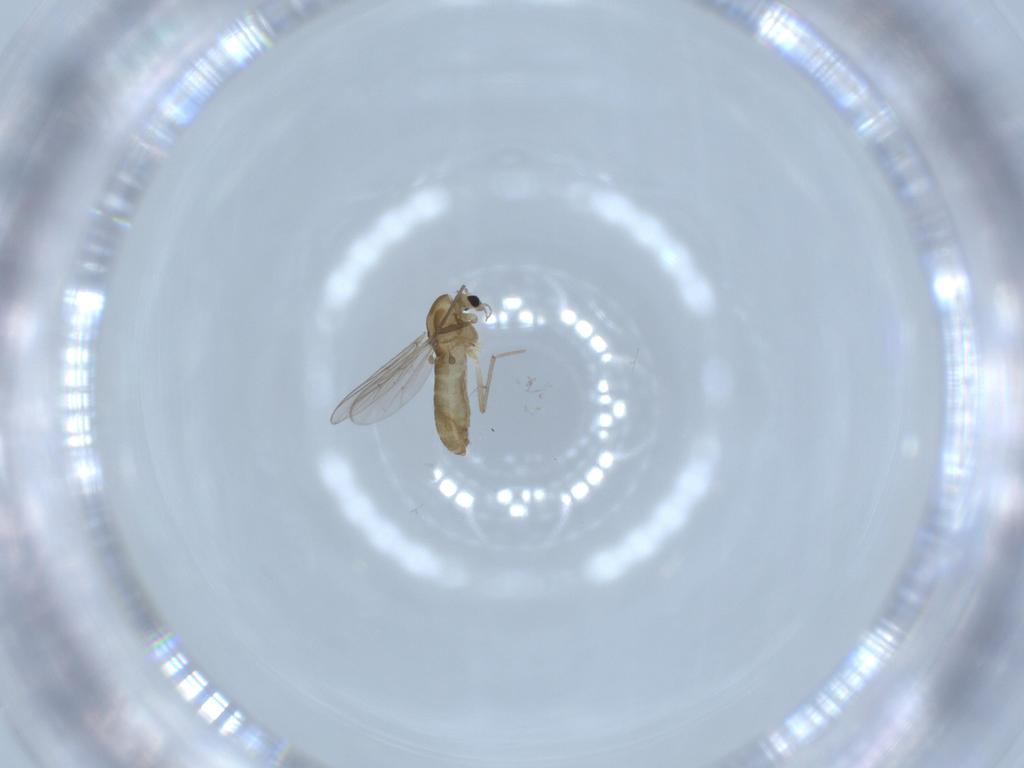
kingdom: Animalia
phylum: Arthropoda
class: Insecta
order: Diptera
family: Chironomidae
